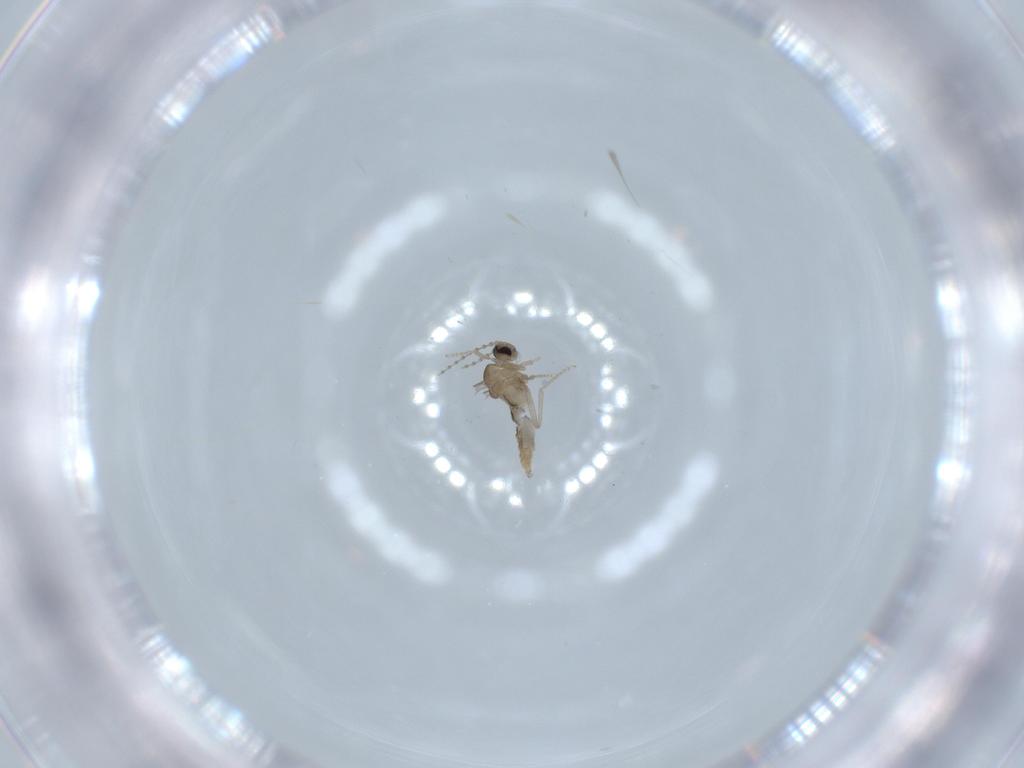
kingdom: Animalia
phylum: Arthropoda
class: Insecta
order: Diptera
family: Cecidomyiidae
